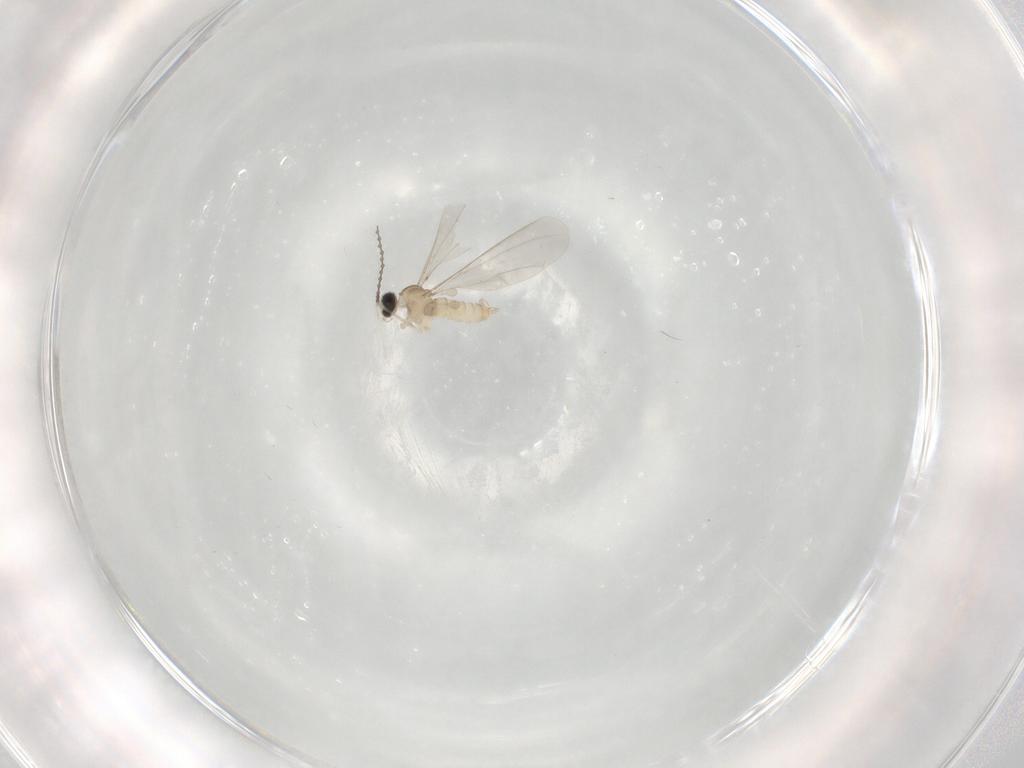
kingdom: Animalia
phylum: Arthropoda
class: Insecta
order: Diptera
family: Cecidomyiidae
